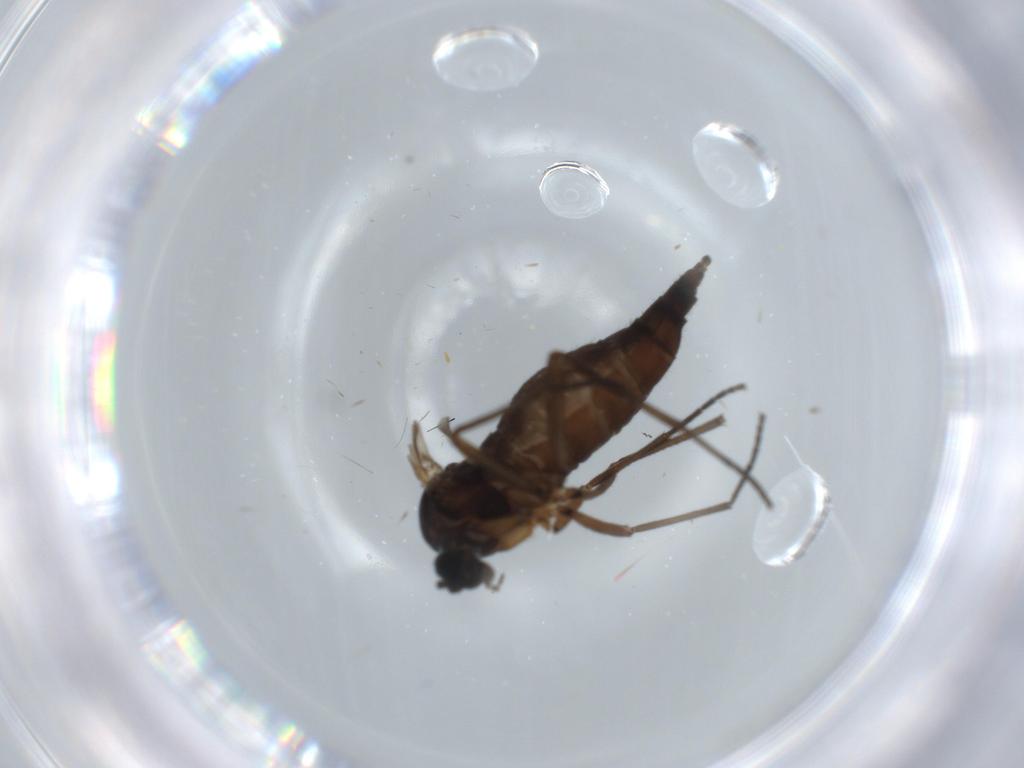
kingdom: Animalia
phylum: Arthropoda
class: Insecta
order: Diptera
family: Sciaridae
